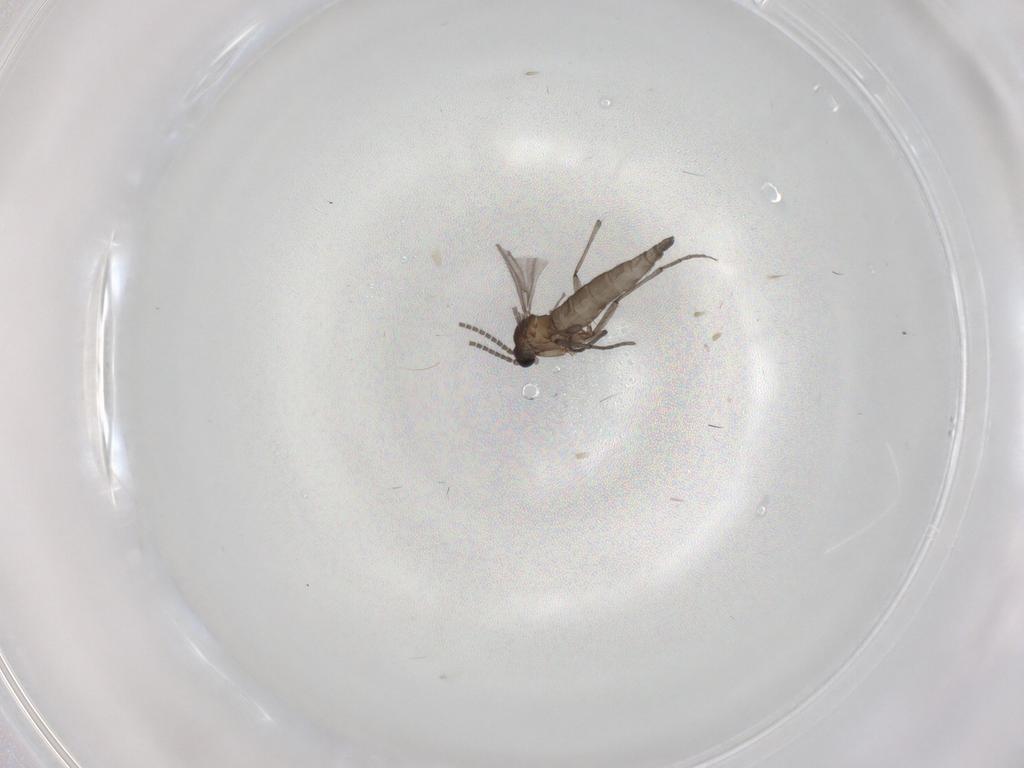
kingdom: Animalia
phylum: Arthropoda
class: Insecta
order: Diptera
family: Sciaridae
